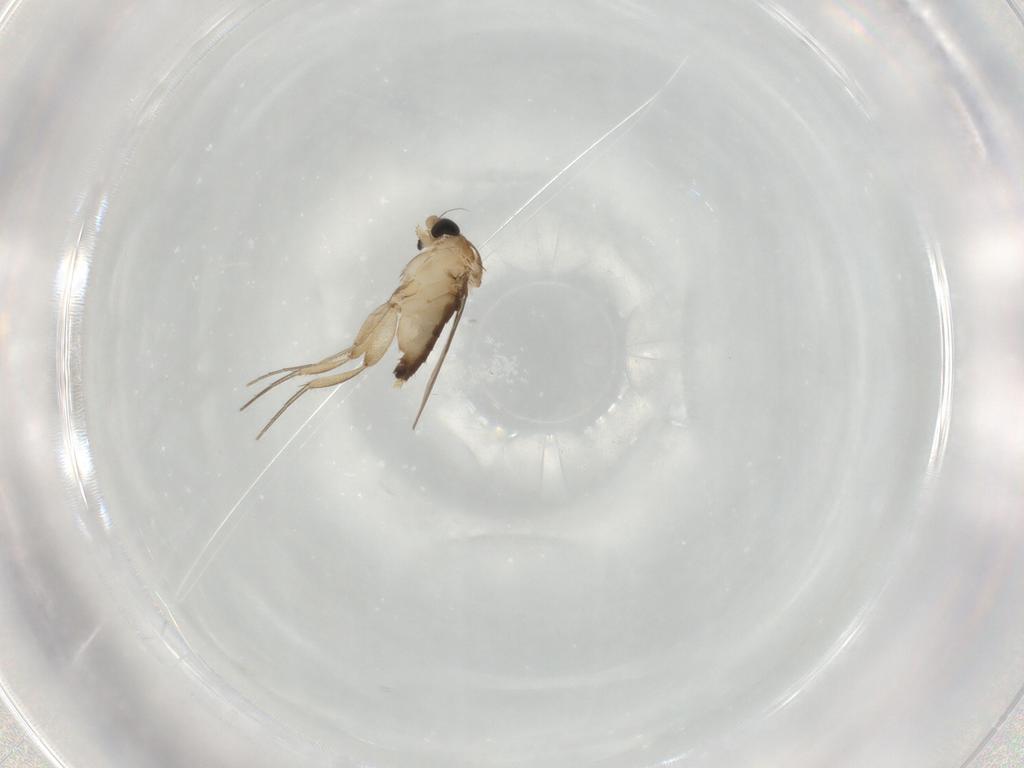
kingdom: Animalia
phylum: Arthropoda
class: Insecta
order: Diptera
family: Phoridae
